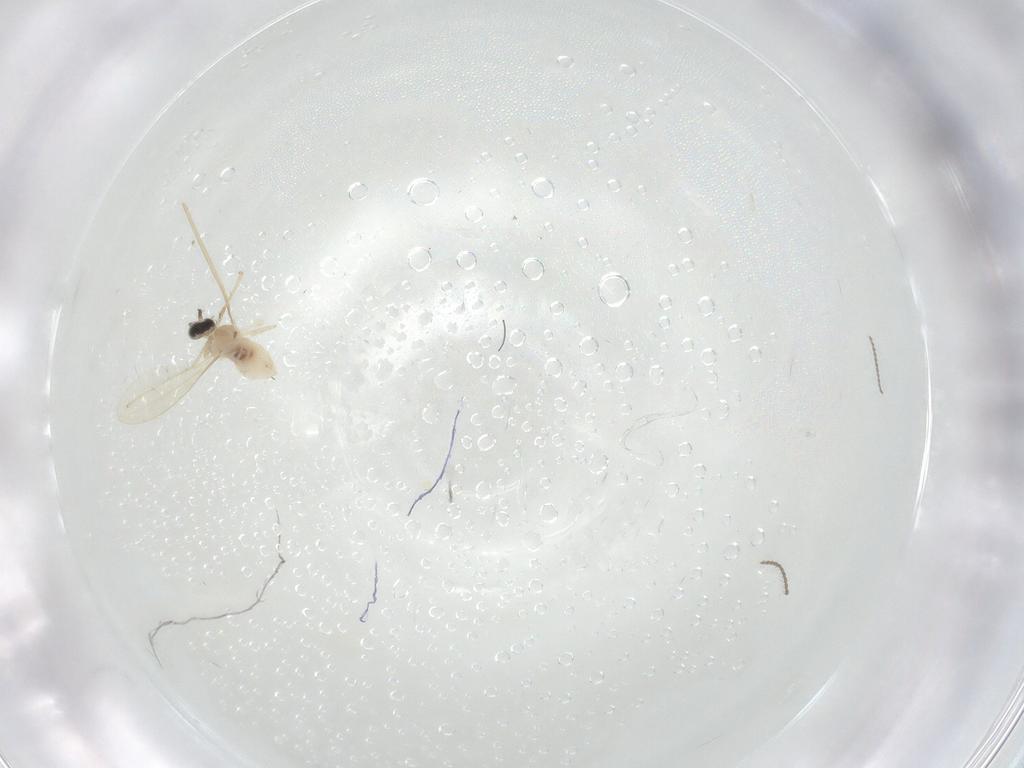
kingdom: Animalia
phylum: Arthropoda
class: Insecta
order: Diptera
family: Cecidomyiidae
